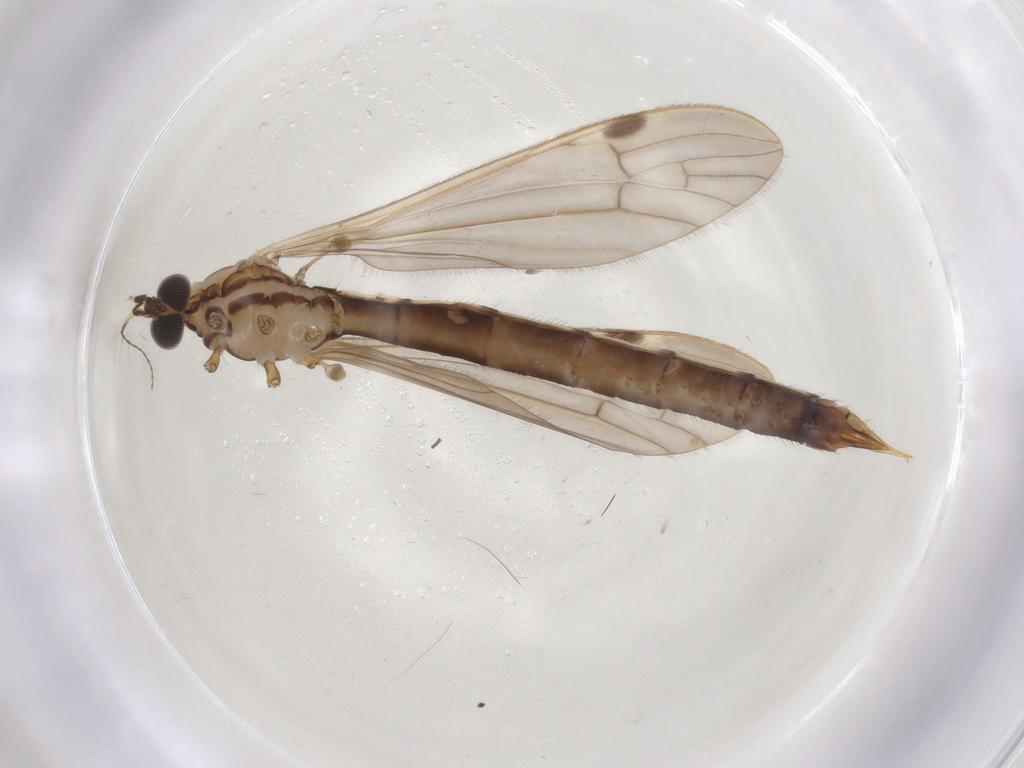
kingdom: Animalia
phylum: Arthropoda
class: Insecta
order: Diptera
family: Limoniidae
